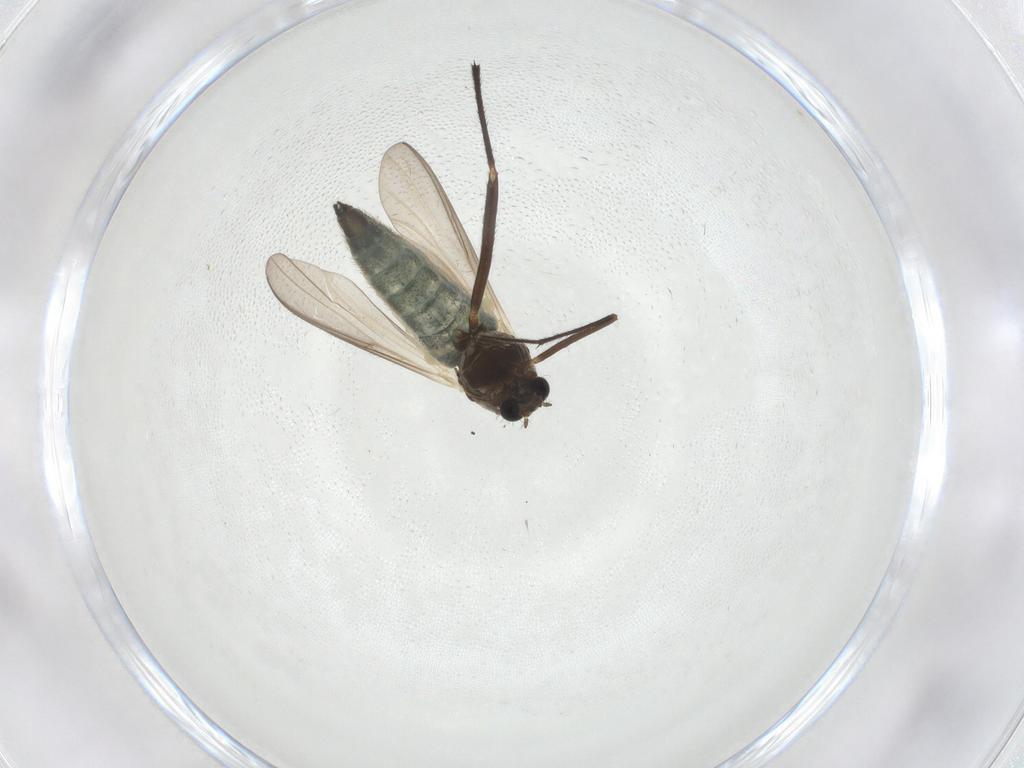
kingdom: Animalia
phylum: Arthropoda
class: Insecta
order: Diptera
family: Chironomidae
